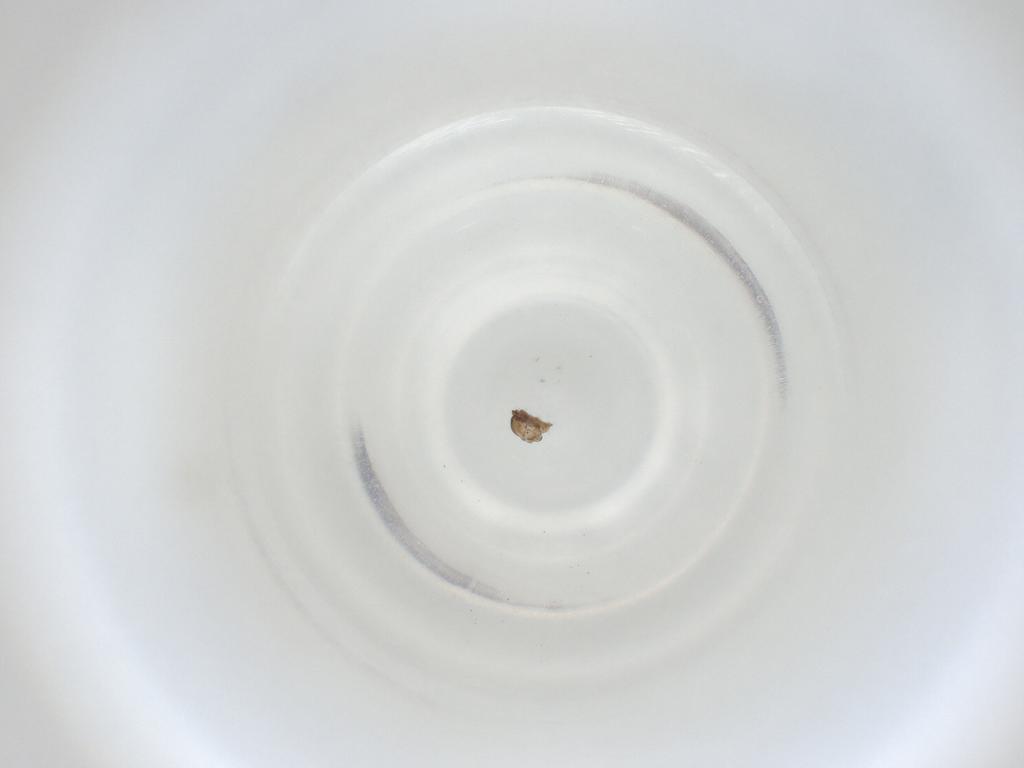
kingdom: Animalia
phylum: Arthropoda
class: Insecta
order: Diptera
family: Cecidomyiidae
